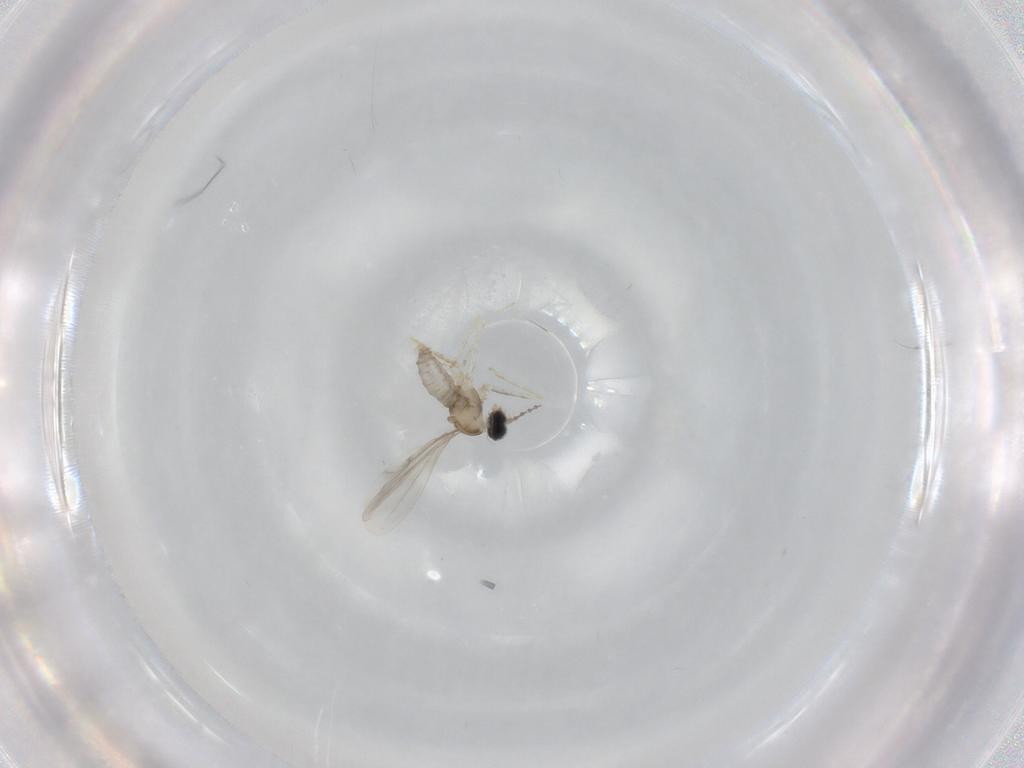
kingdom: Animalia
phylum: Arthropoda
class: Insecta
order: Diptera
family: Cecidomyiidae
